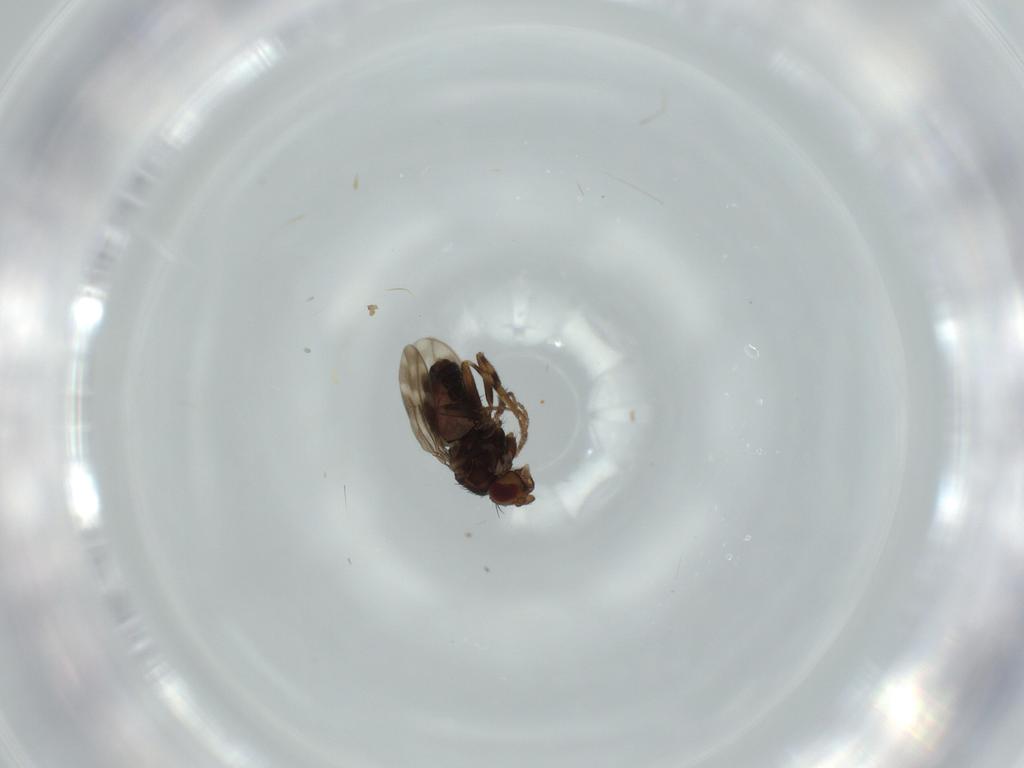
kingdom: Animalia
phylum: Arthropoda
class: Insecta
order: Diptera
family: Sphaeroceridae
